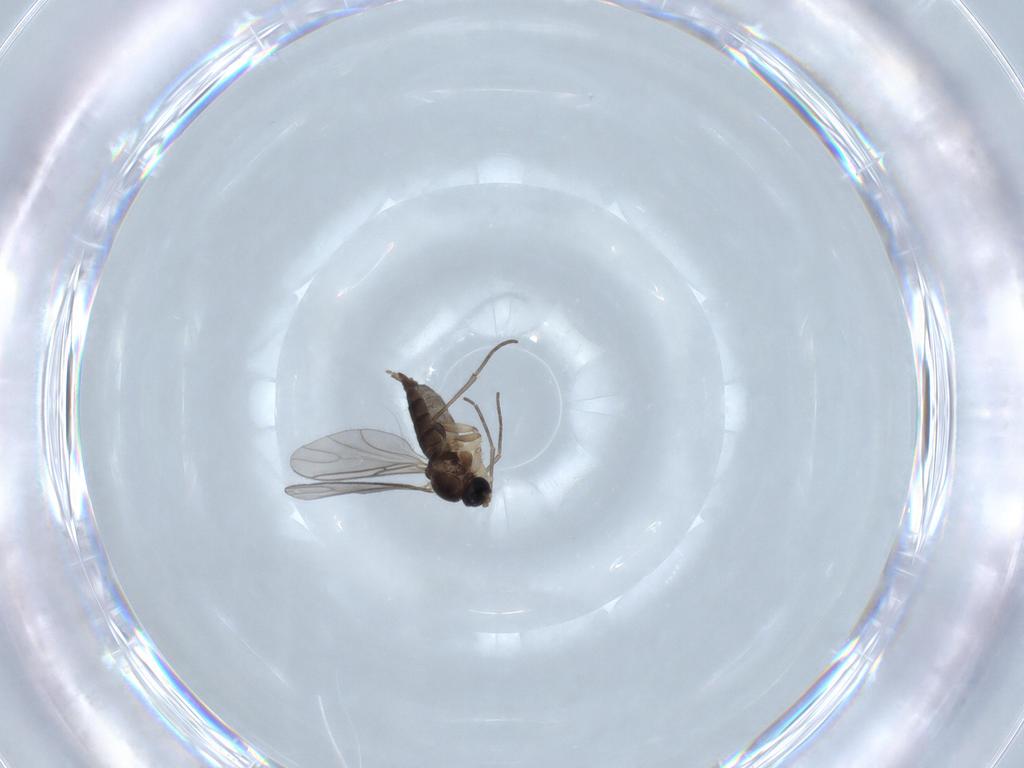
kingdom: Animalia
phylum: Arthropoda
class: Insecta
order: Diptera
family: Sciaridae
